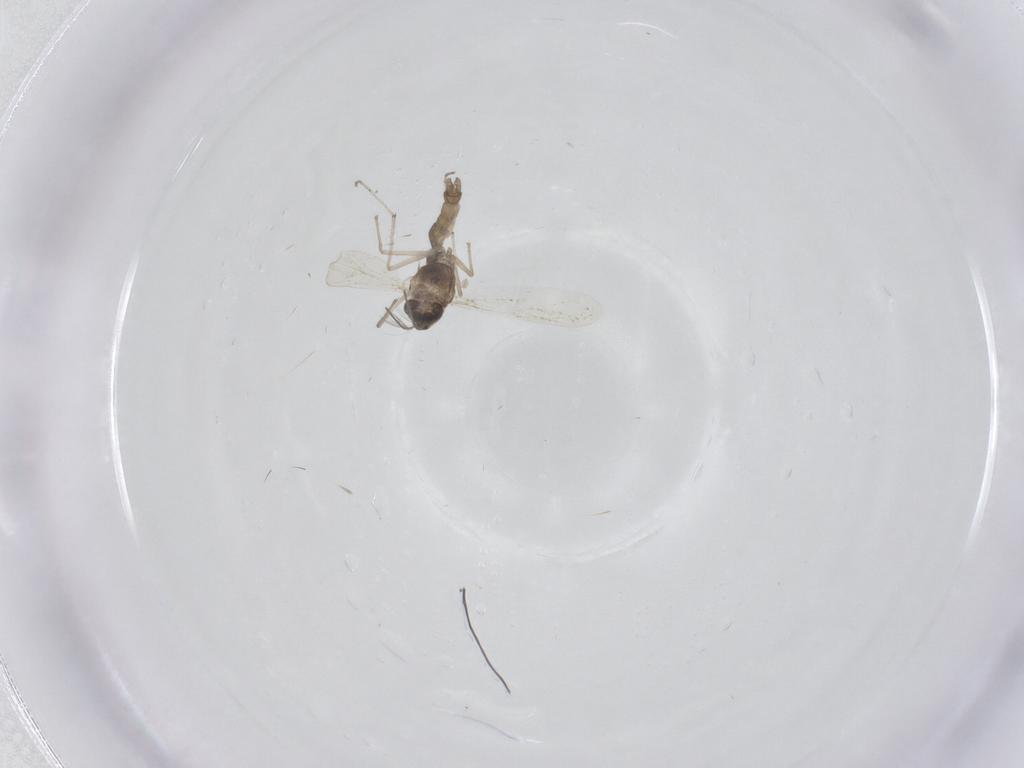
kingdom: Animalia
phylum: Arthropoda
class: Insecta
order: Diptera
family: Chironomidae
